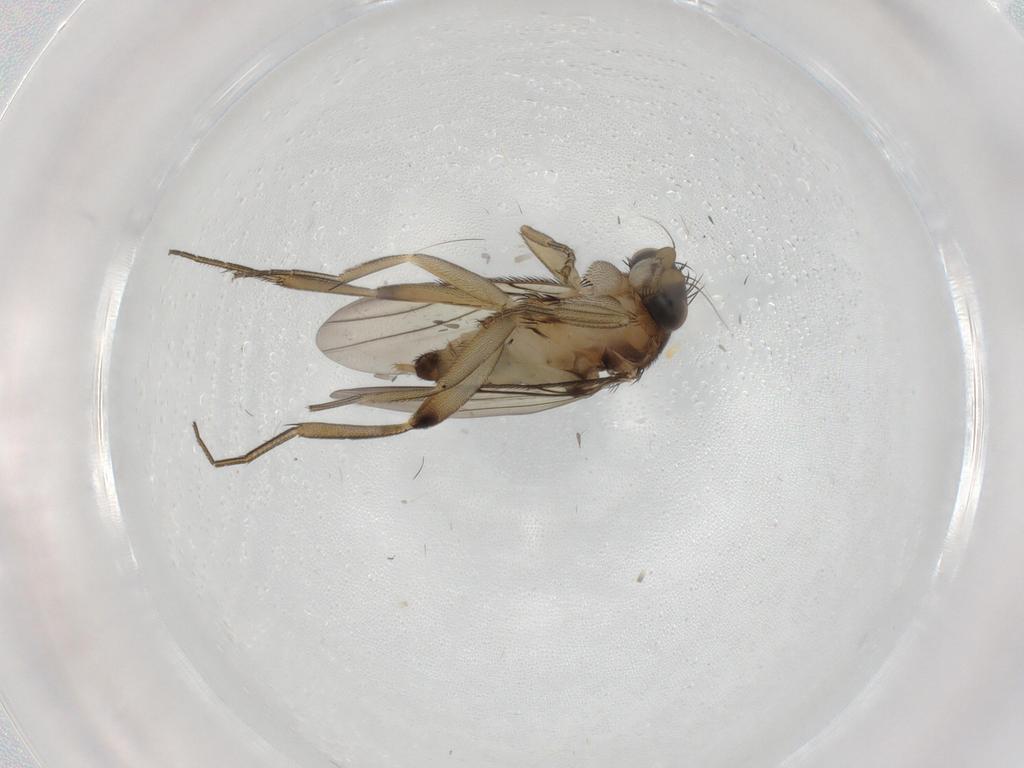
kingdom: Animalia
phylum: Arthropoda
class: Insecta
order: Diptera
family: Phoridae
